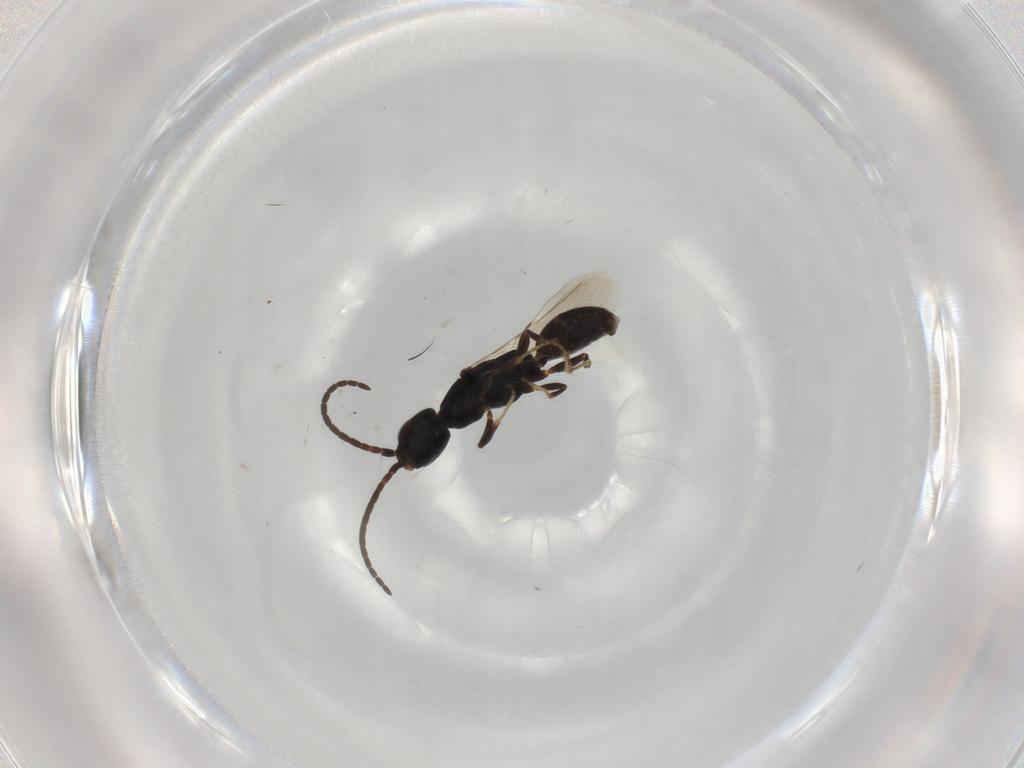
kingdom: Animalia
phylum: Arthropoda
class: Insecta
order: Hymenoptera
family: Bethylidae
